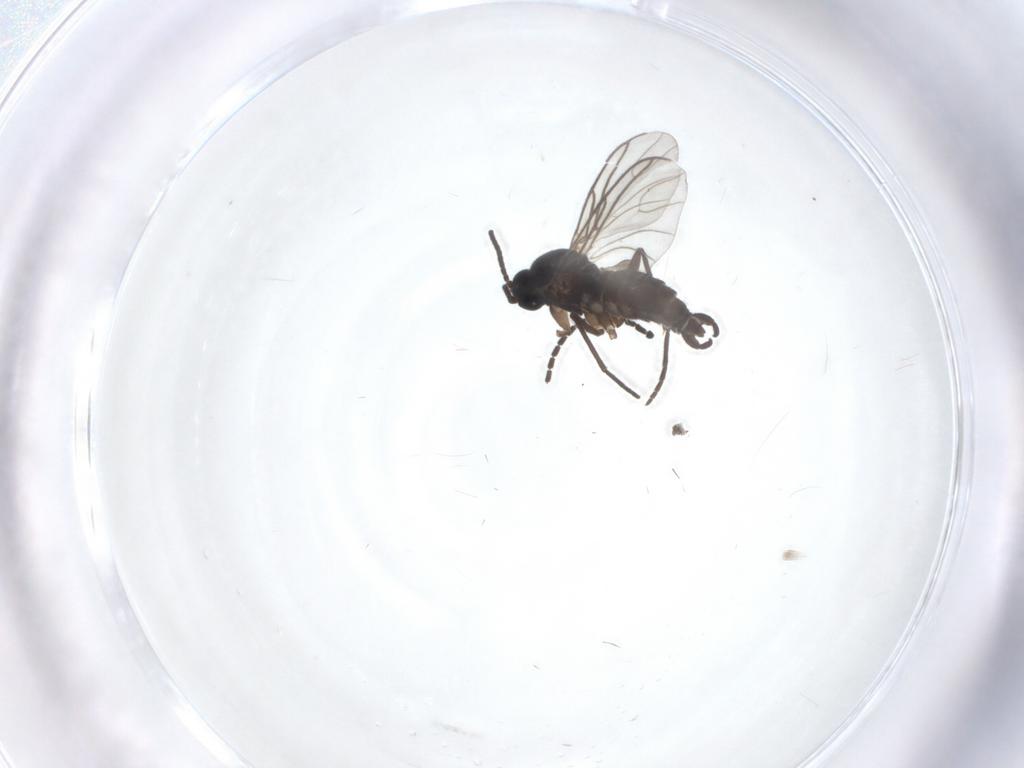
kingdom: Animalia
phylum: Arthropoda
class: Insecta
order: Diptera
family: Sciaridae
